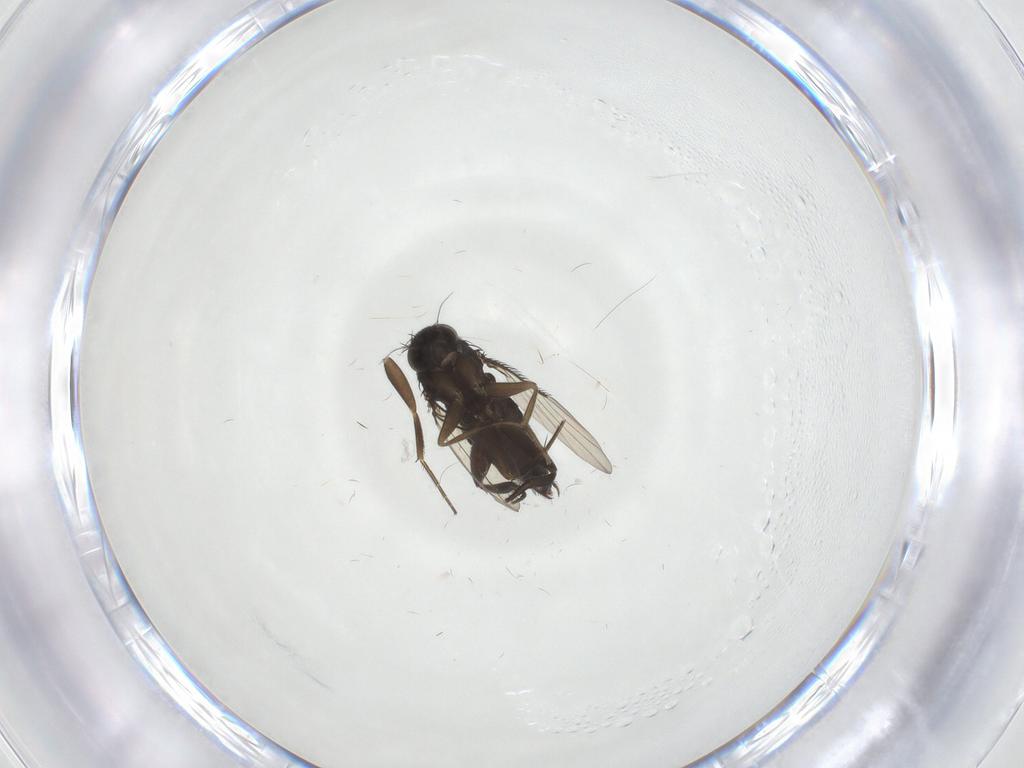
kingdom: Animalia
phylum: Arthropoda
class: Insecta
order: Diptera
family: Phoridae
